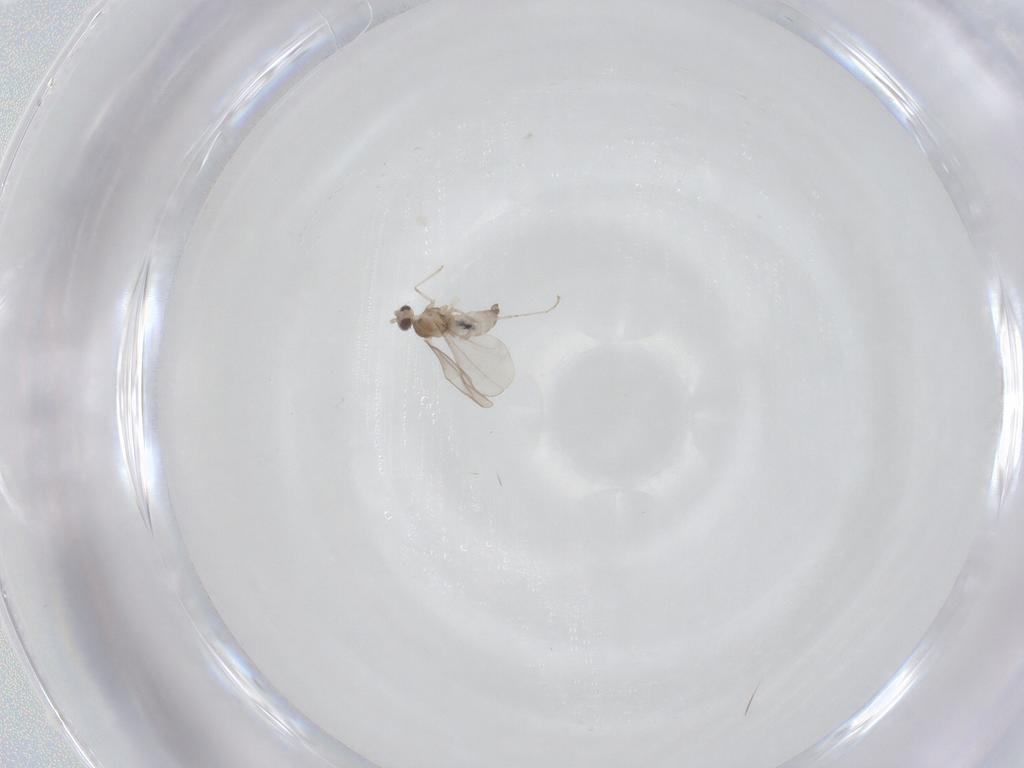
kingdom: Animalia
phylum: Arthropoda
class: Insecta
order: Diptera
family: Cecidomyiidae
